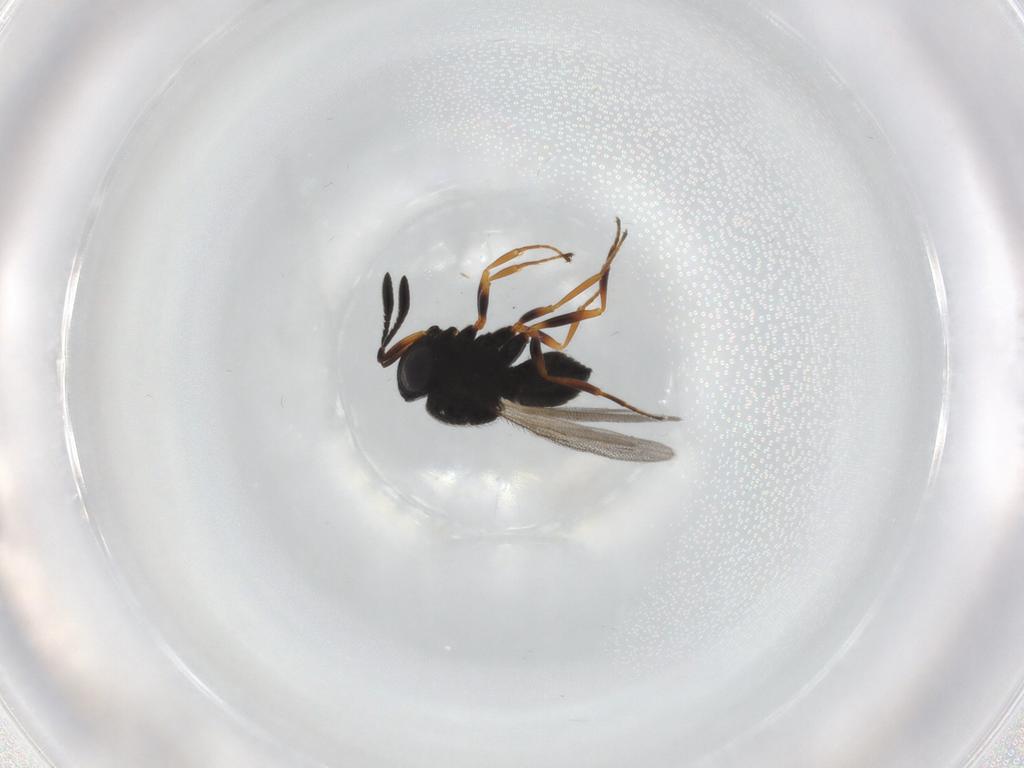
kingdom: Animalia
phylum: Arthropoda
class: Insecta
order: Hymenoptera
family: Scelionidae
